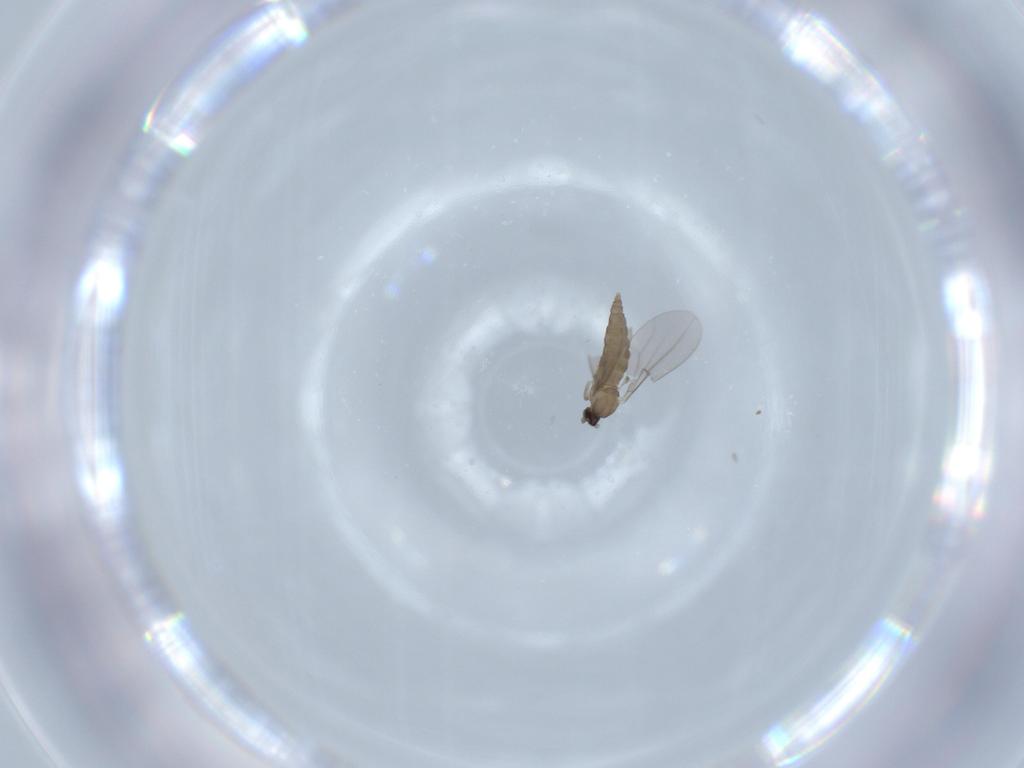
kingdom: Animalia
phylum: Arthropoda
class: Insecta
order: Diptera
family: Cecidomyiidae
